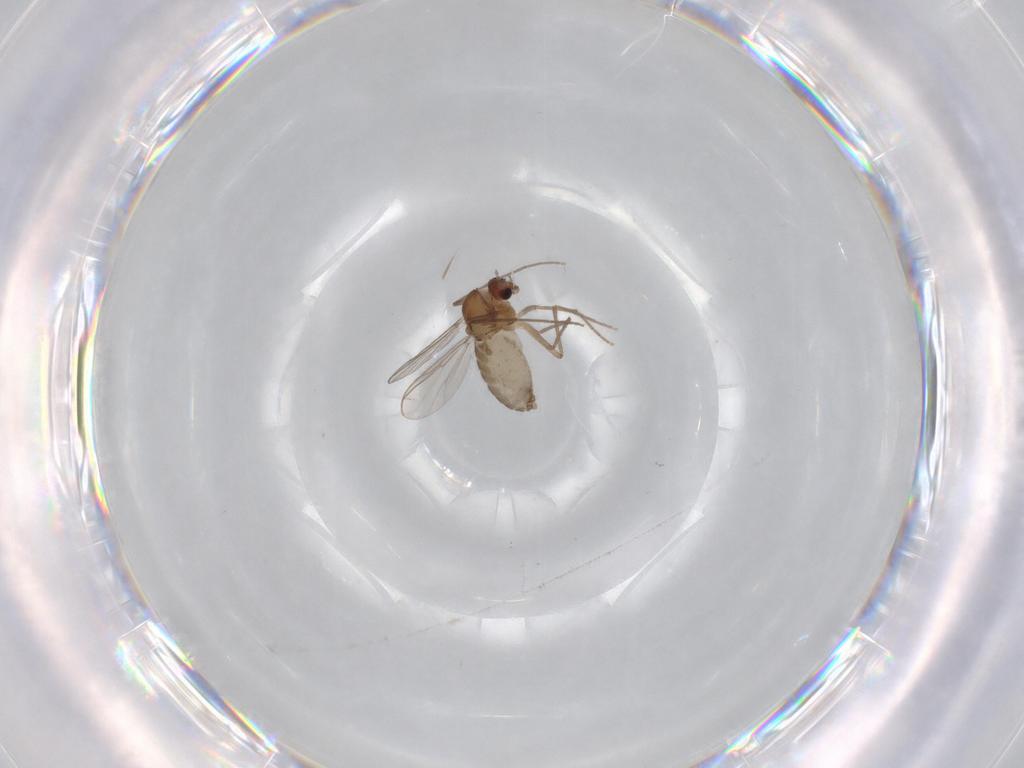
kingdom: Animalia
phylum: Arthropoda
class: Insecta
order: Diptera
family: Chironomidae
